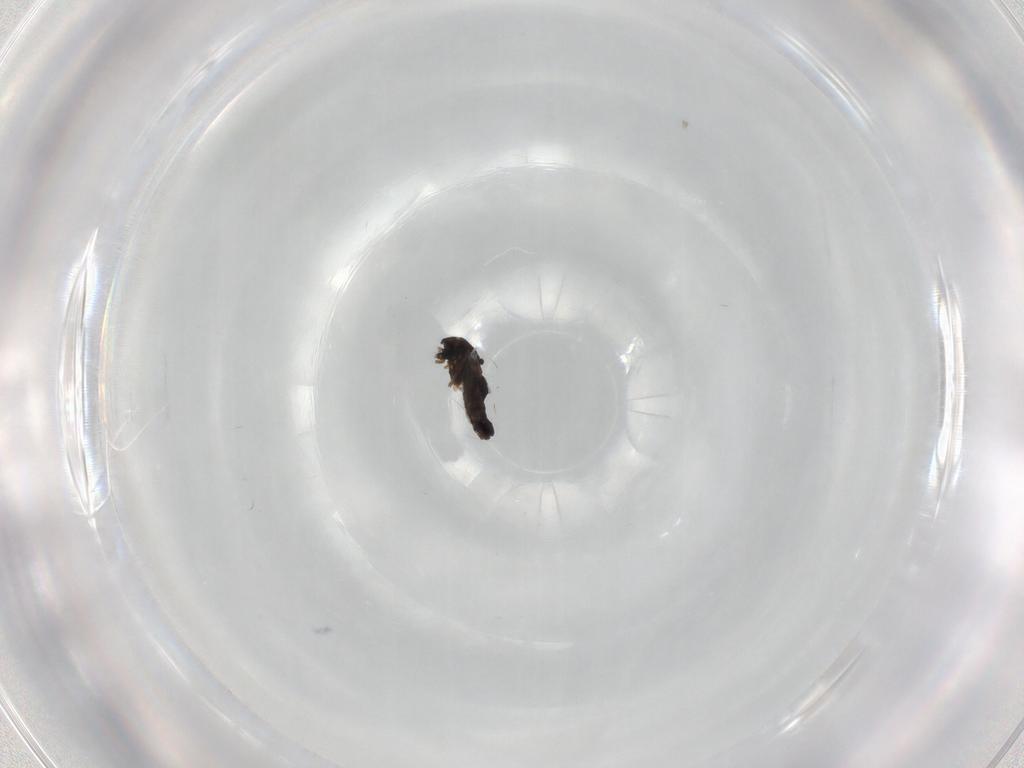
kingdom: Animalia
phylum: Arthropoda
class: Insecta
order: Diptera
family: Chironomidae
